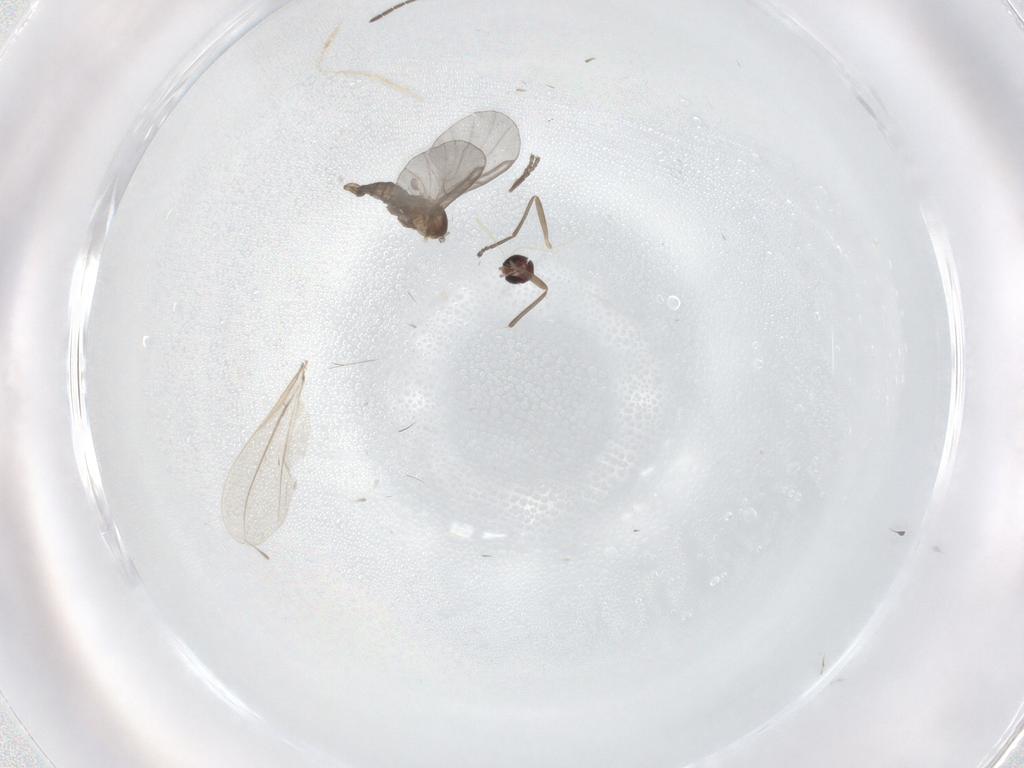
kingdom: Animalia
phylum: Arthropoda
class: Insecta
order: Diptera
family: Cecidomyiidae
